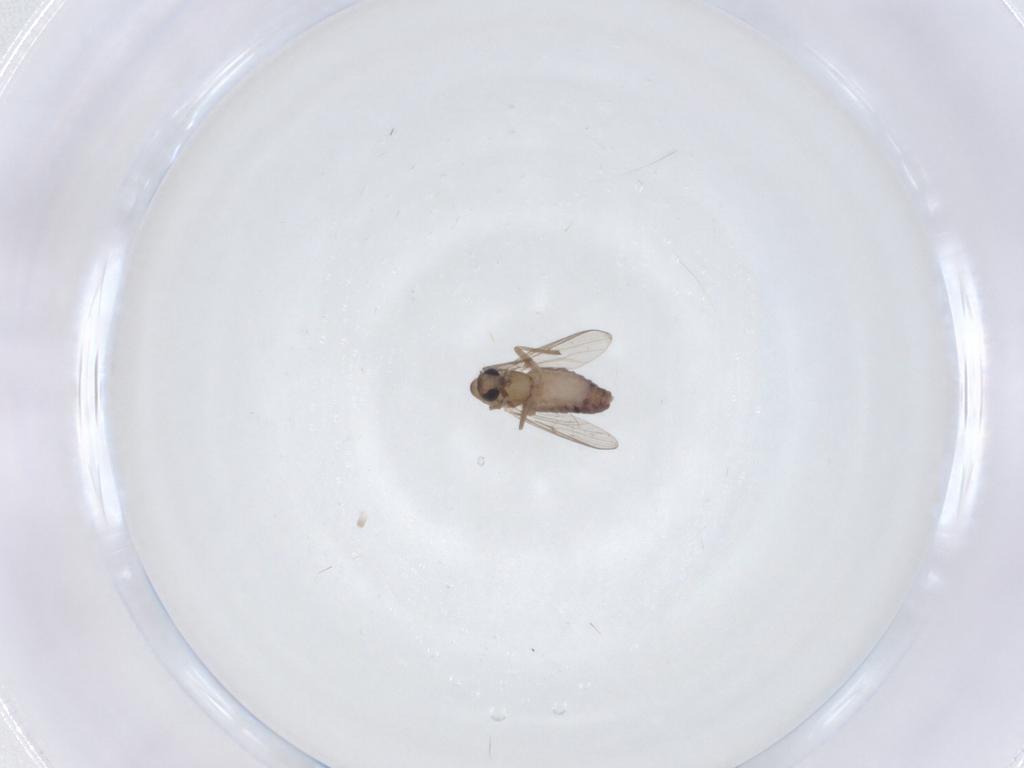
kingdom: Animalia
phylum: Arthropoda
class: Insecta
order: Diptera
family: Chironomidae
